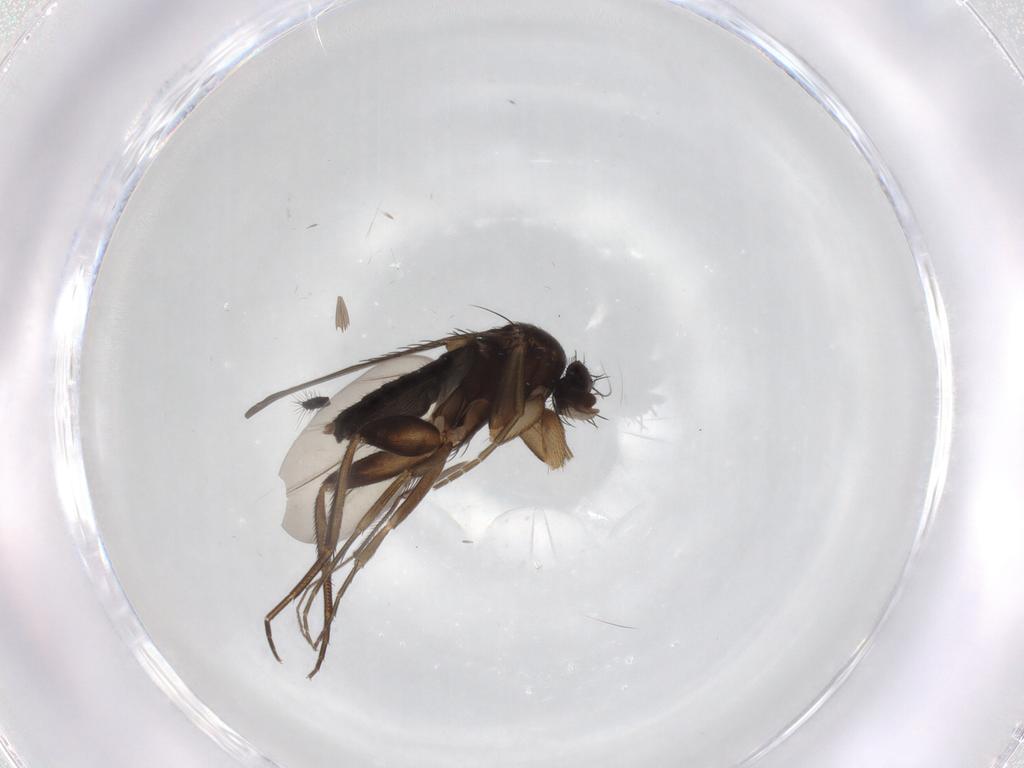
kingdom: Animalia
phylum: Arthropoda
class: Insecta
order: Diptera
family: Phoridae
